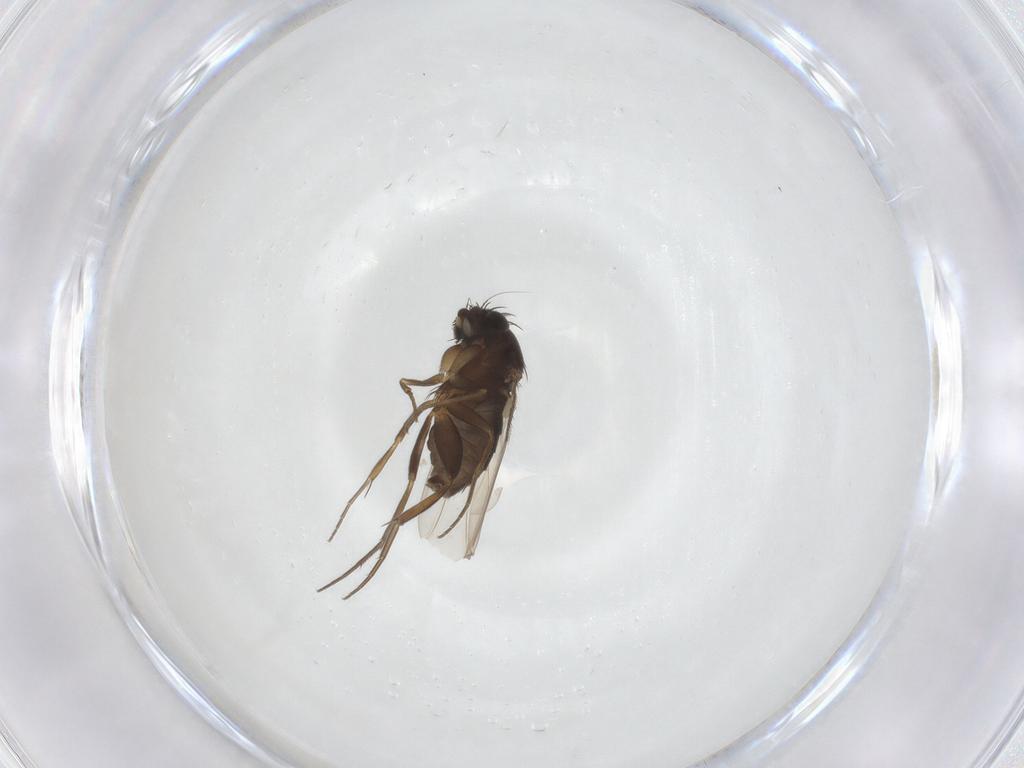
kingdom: Animalia
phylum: Arthropoda
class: Insecta
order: Diptera
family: Phoridae
